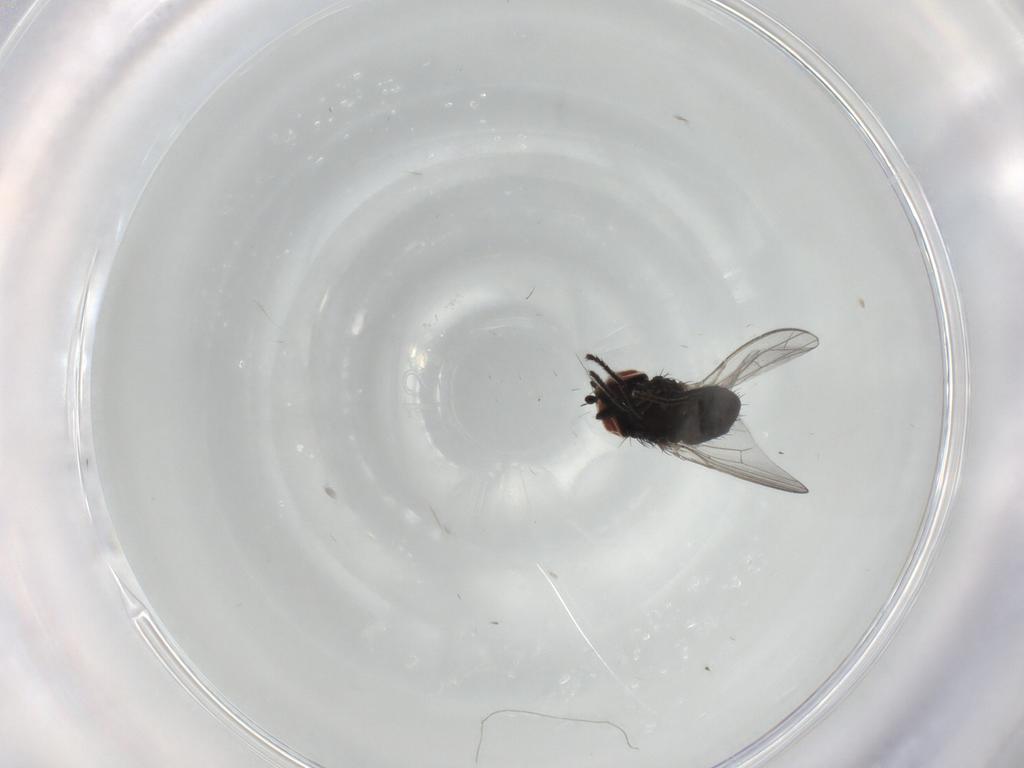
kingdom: Animalia
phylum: Arthropoda
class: Insecta
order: Diptera
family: Milichiidae
